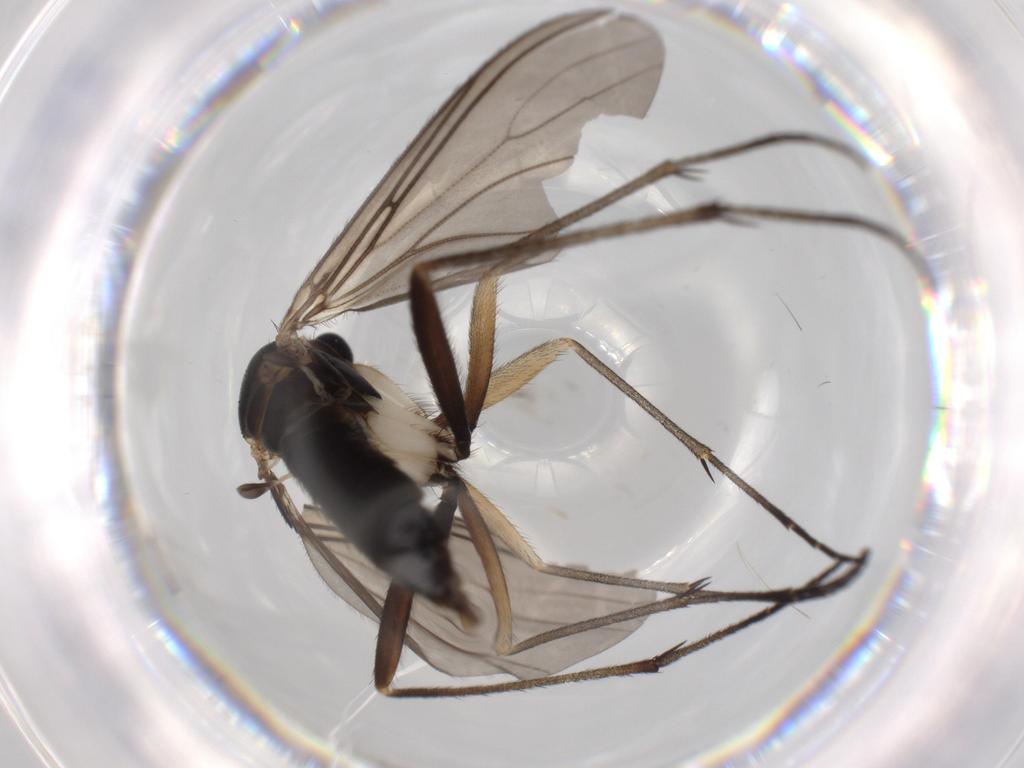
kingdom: Animalia
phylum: Arthropoda
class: Insecta
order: Diptera
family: Sciaridae
